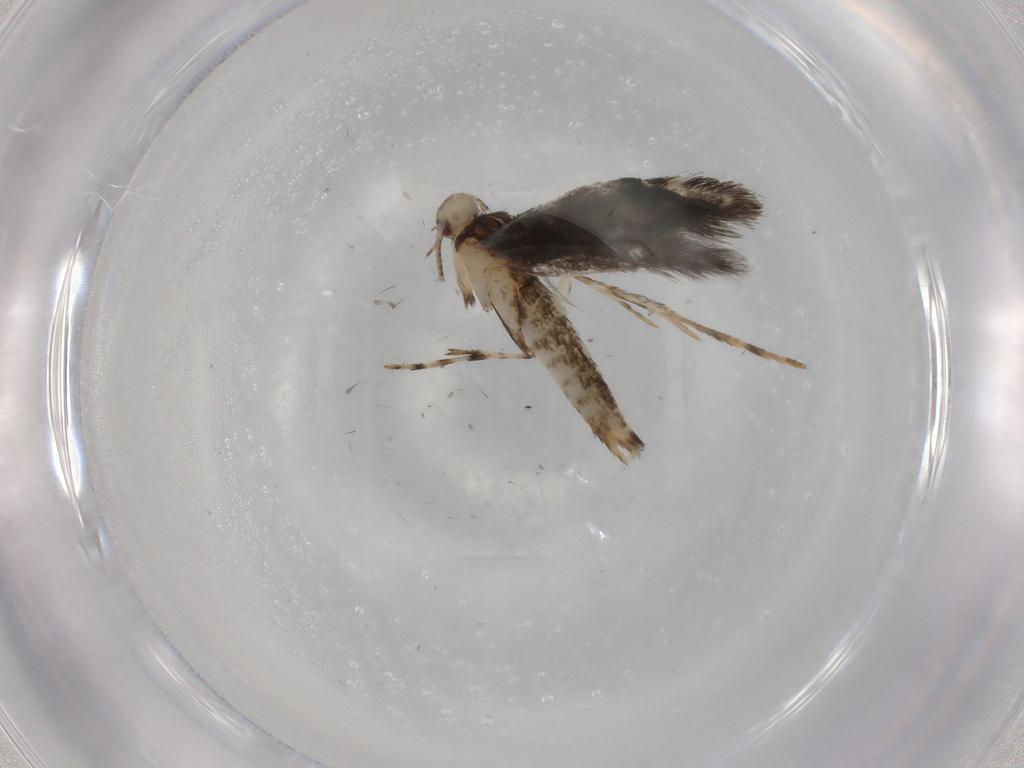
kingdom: Animalia
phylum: Arthropoda
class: Insecta
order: Lepidoptera
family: Gracillariidae
